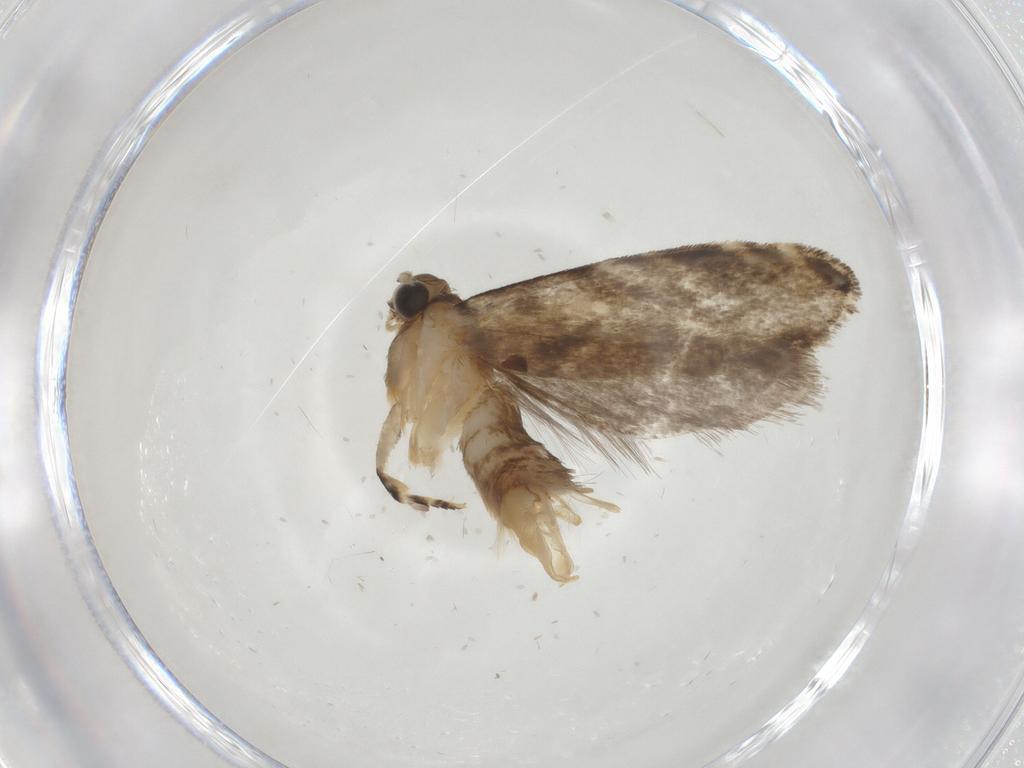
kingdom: Animalia
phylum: Arthropoda
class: Insecta
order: Lepidoptera
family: Tineidae
